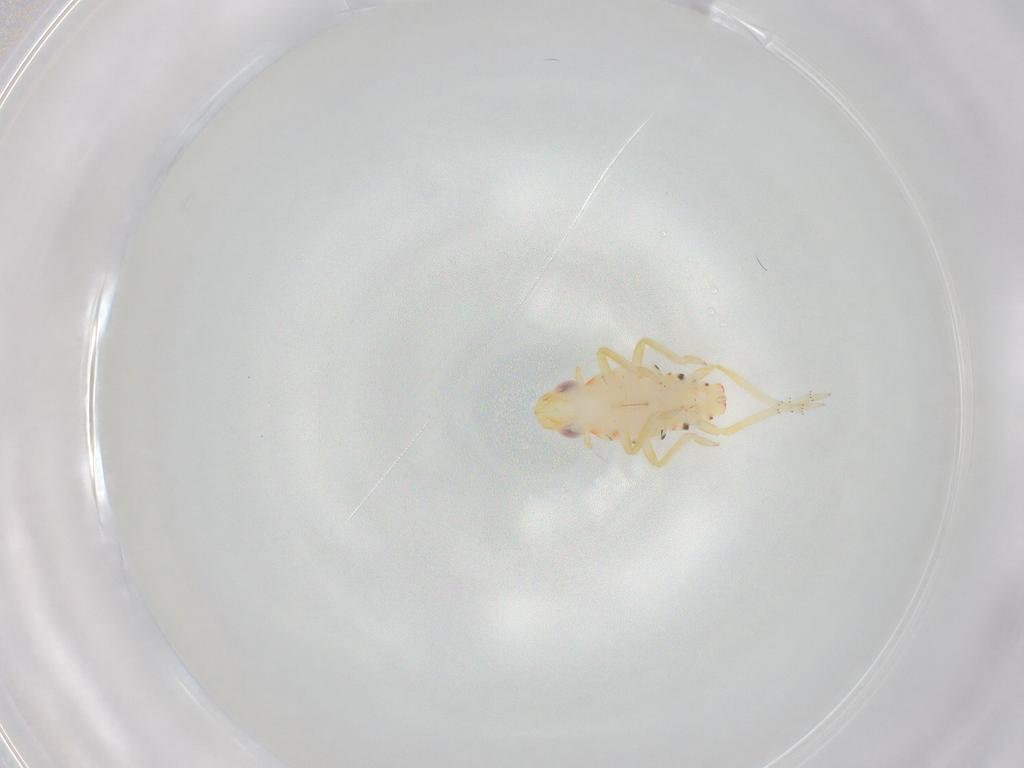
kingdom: Animalia
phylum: Arthropoda
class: Insecta
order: Hemiptera
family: Tropiduchidae
